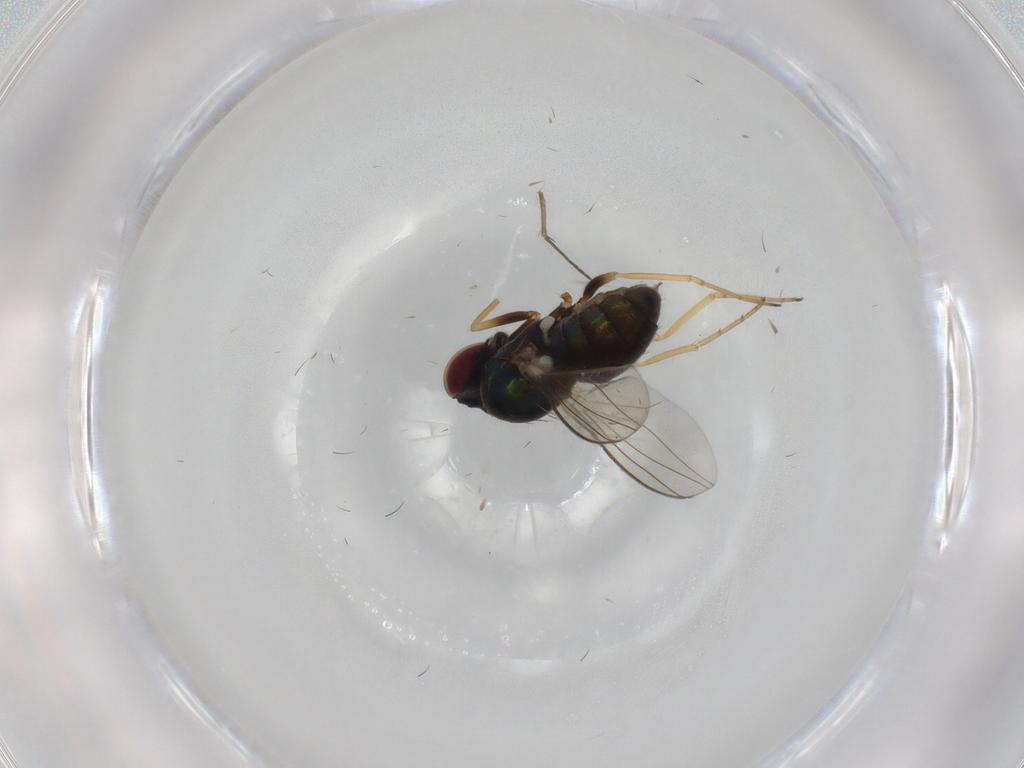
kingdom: Animalia
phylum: Arthropoda
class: Insecta
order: Diptera
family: Dolichopodidae
